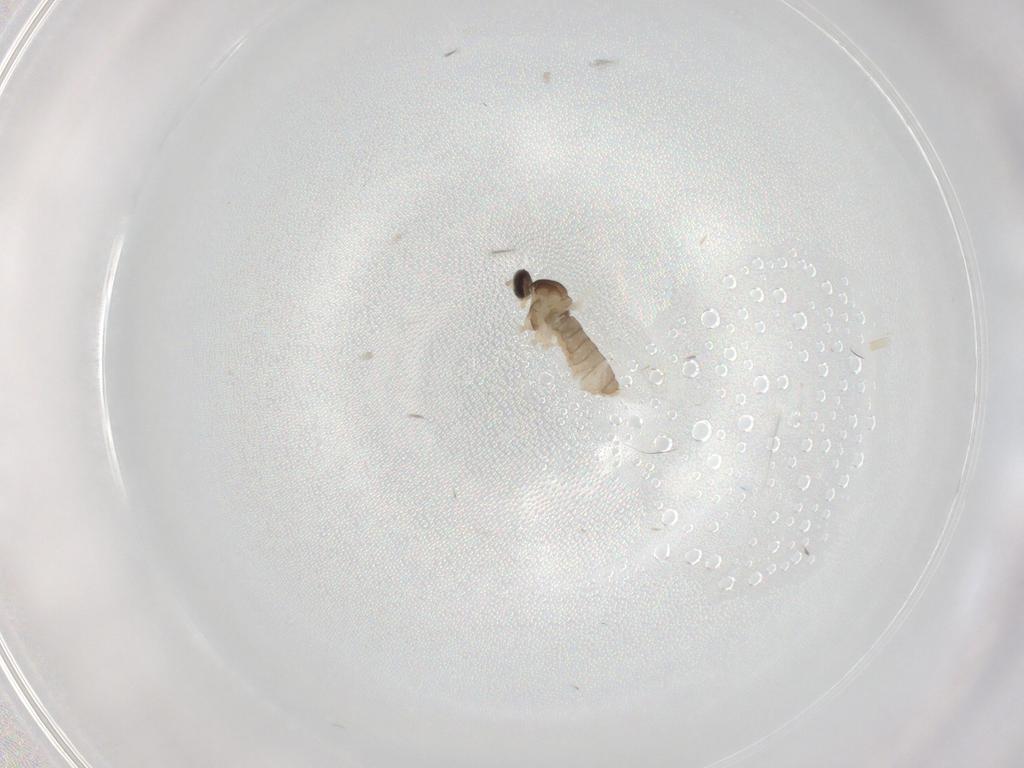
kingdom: Animalia
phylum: Arthropoda
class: Insecta
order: Diptera
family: Cecidomyiidae
